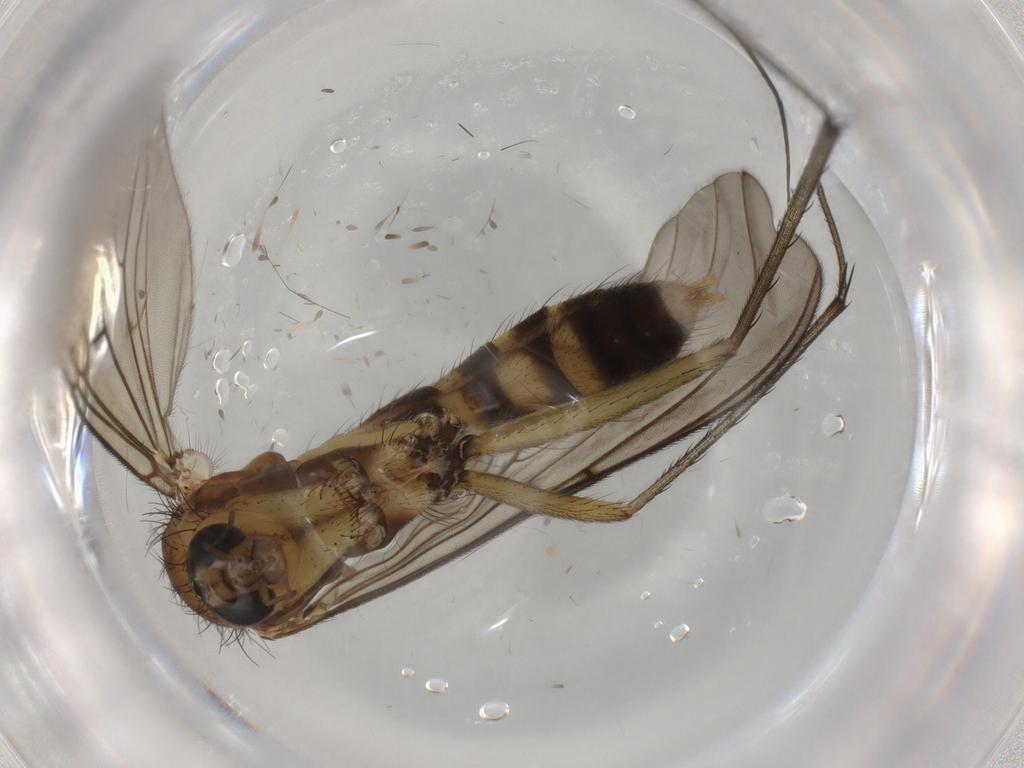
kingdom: Animalia
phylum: Arthropoda
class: Insecta
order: Diptera
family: Mycetophilidae
